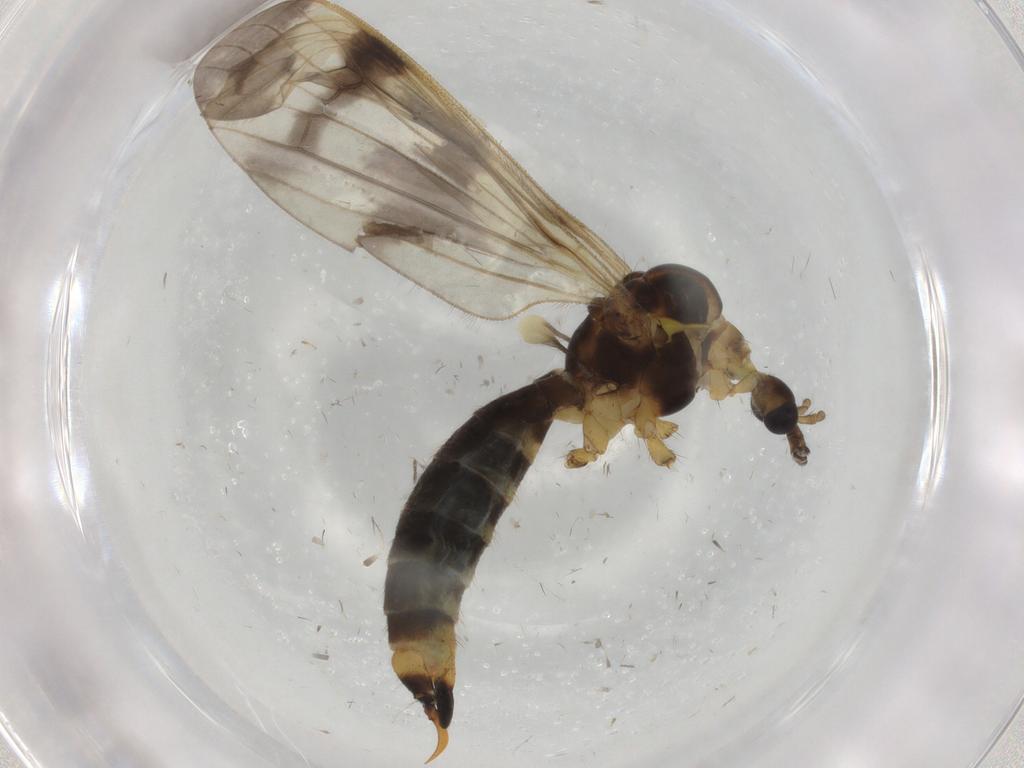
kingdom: Animalia
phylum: Arthropoda
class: Insecta
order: Diptera
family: Limoniidae
